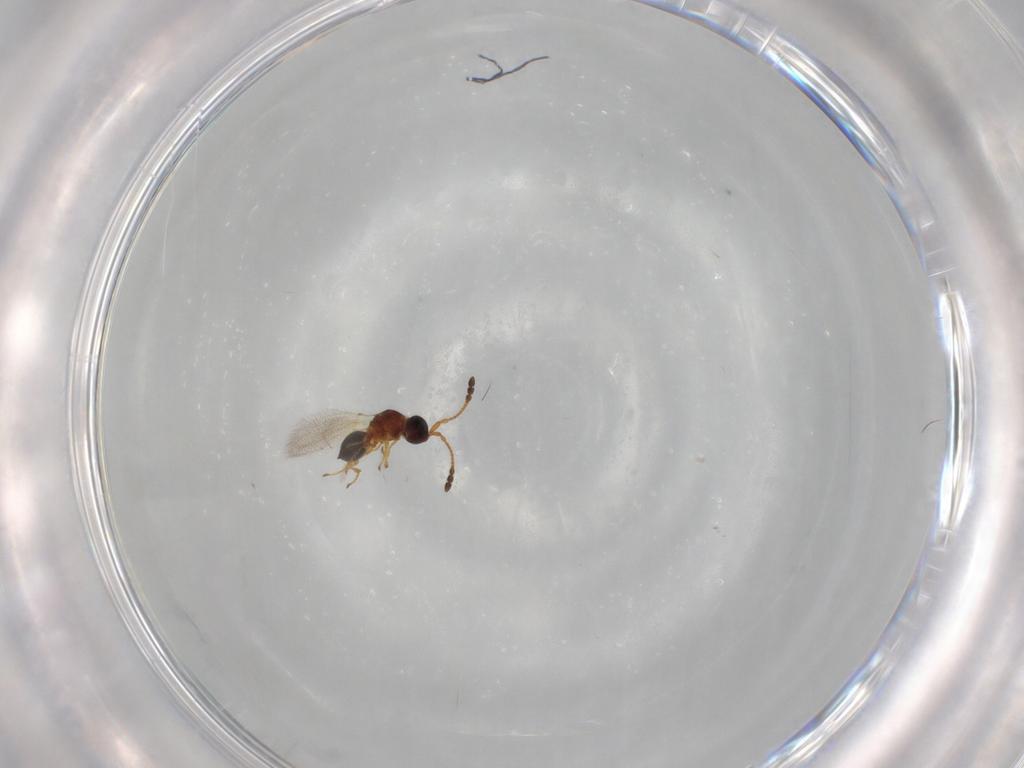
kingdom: Animalia
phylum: Arthropoda
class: Insecta
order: Hymenoptera
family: Diapriidae
